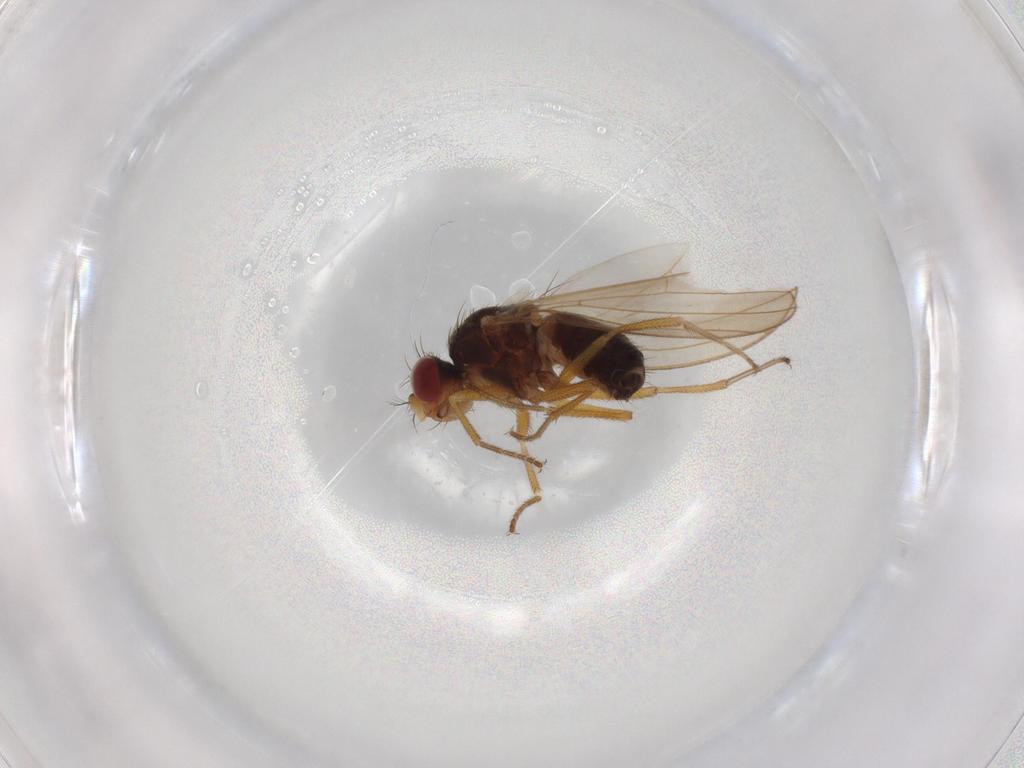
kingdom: Animalia
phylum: Arthropoda
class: Insecta
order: Diptera
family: Drosophilidae
